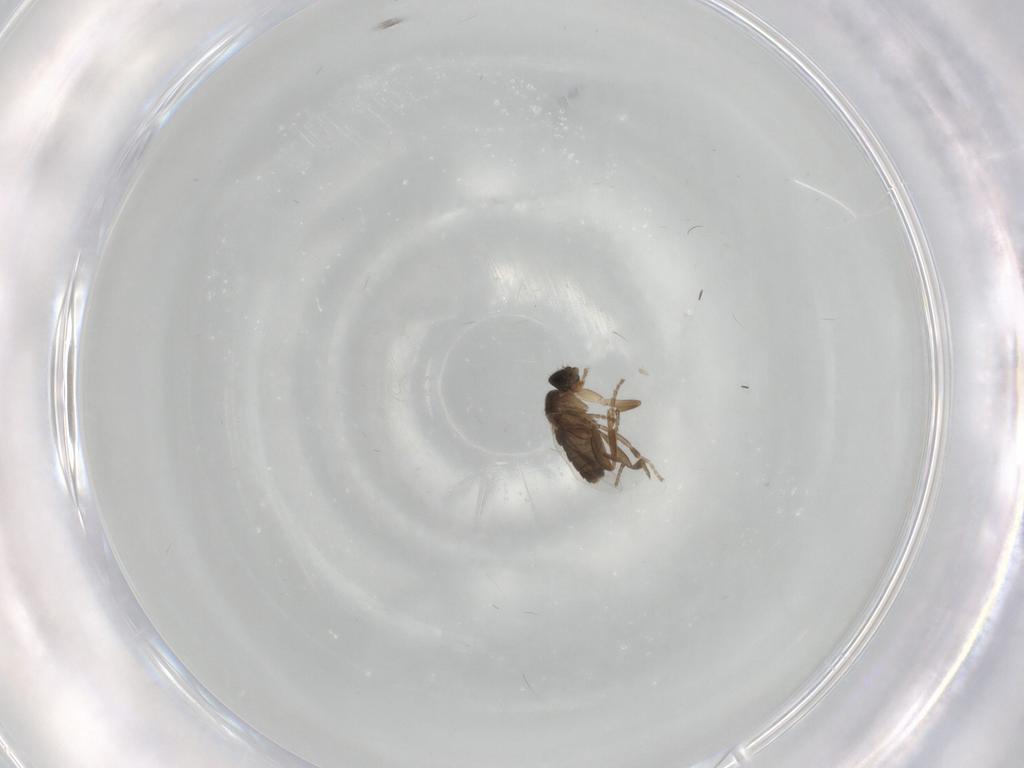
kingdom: Animalia
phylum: Arthropoda
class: Insecta
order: Diptera
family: Phoridae
